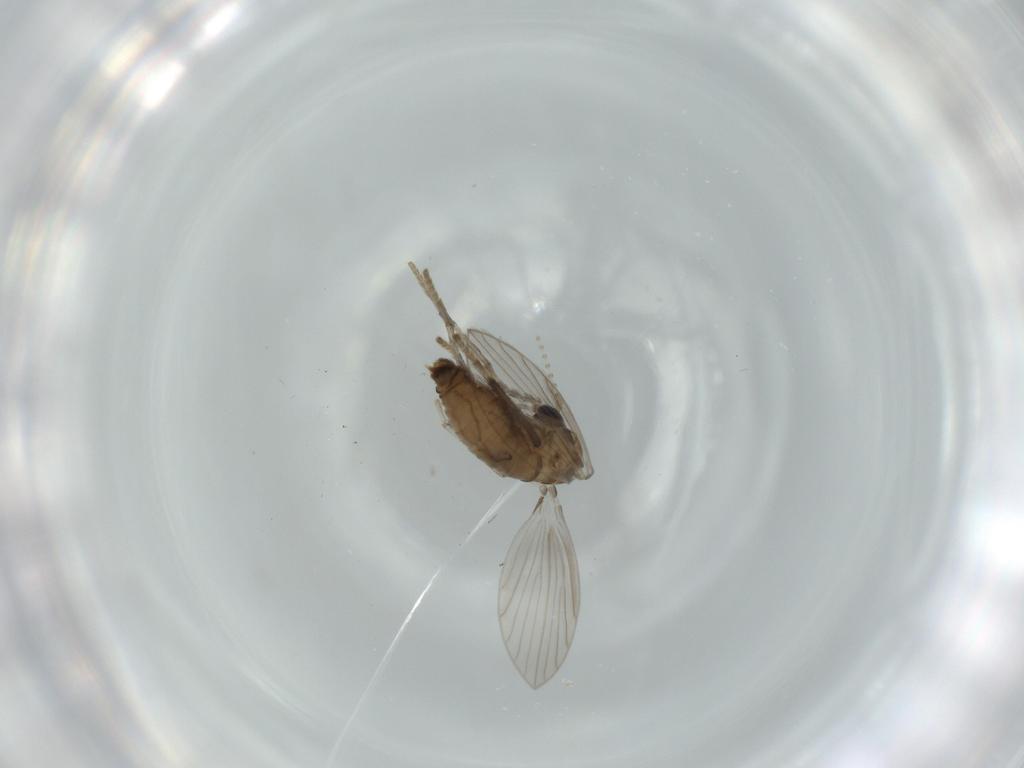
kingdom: Animalia
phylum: Arthropoda
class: Insecta
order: Diptera
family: Psychodidae
